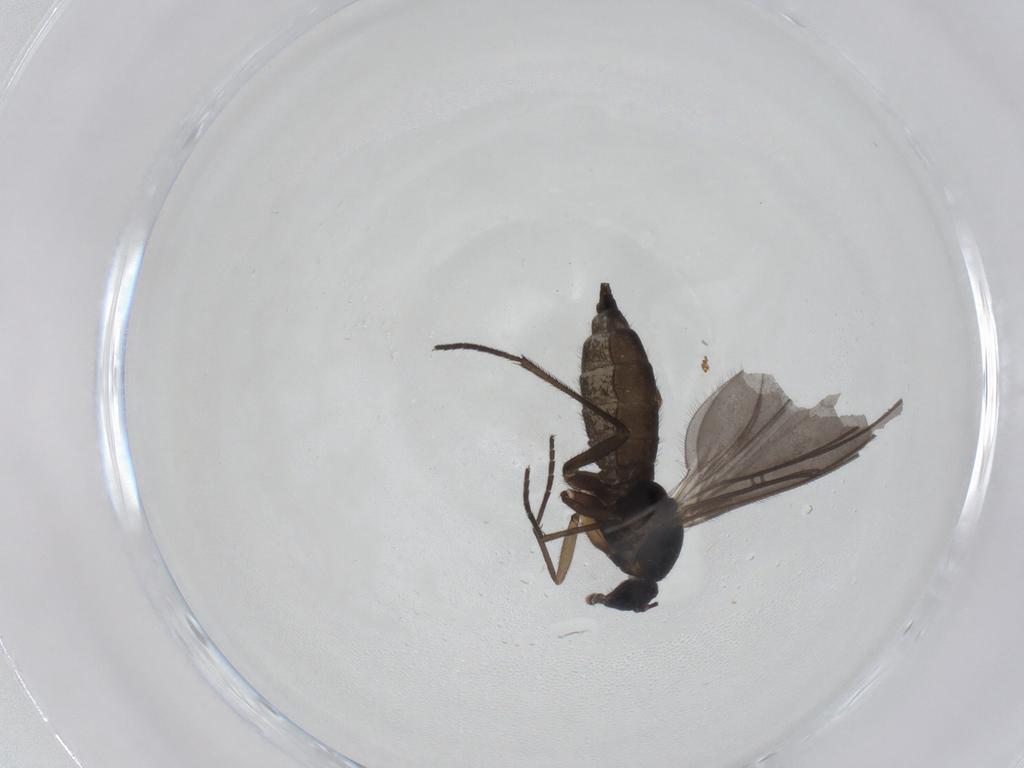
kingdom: Animalia
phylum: Arthropoda
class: Insecta
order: Diptera
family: Sciaridae
